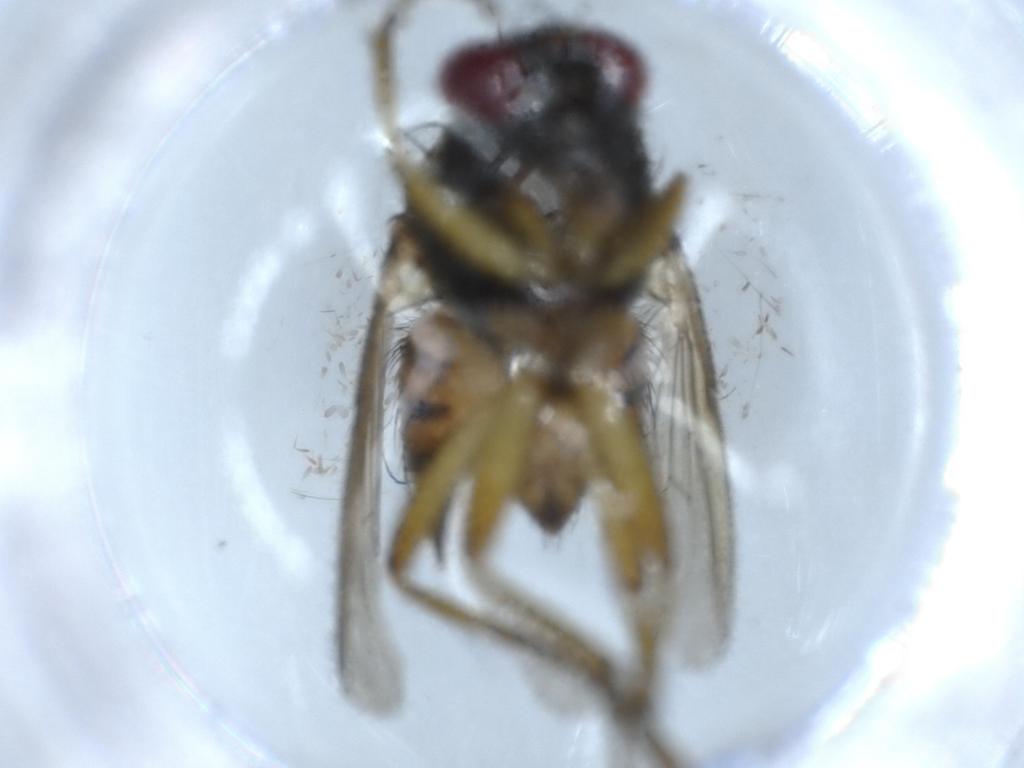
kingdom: Animalia
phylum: Arthropoda
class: Insecta
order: Diptera
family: Muscidae
